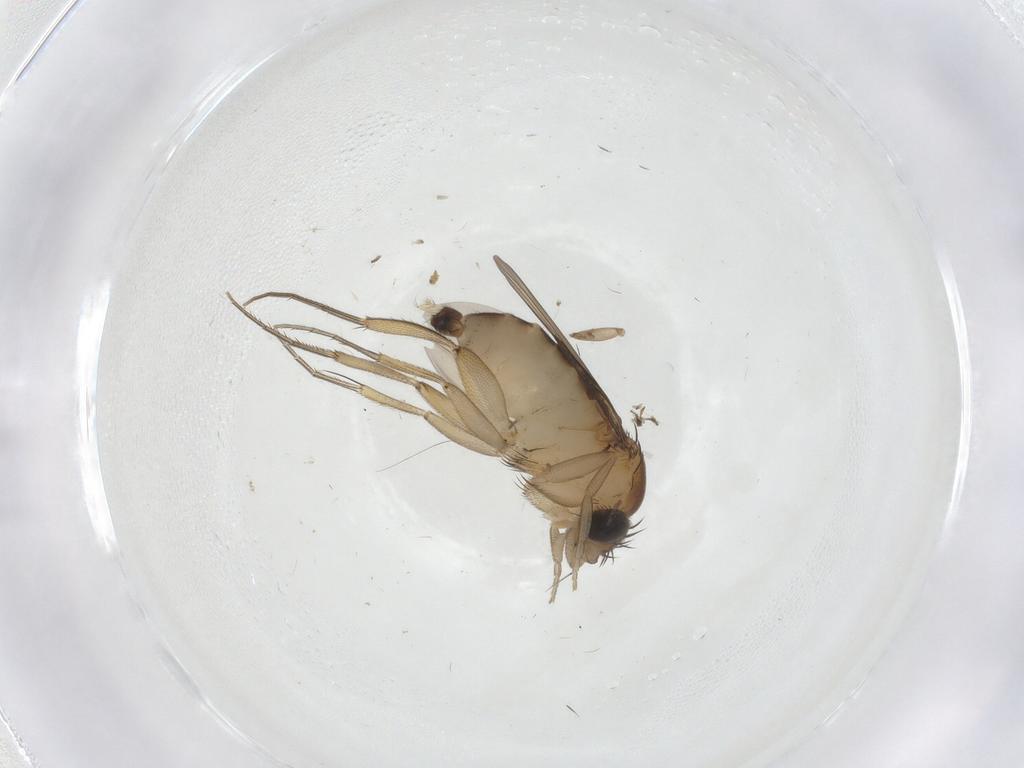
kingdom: Animalia
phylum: Arthropoda
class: Insecta
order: Diptera
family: Phoridae
